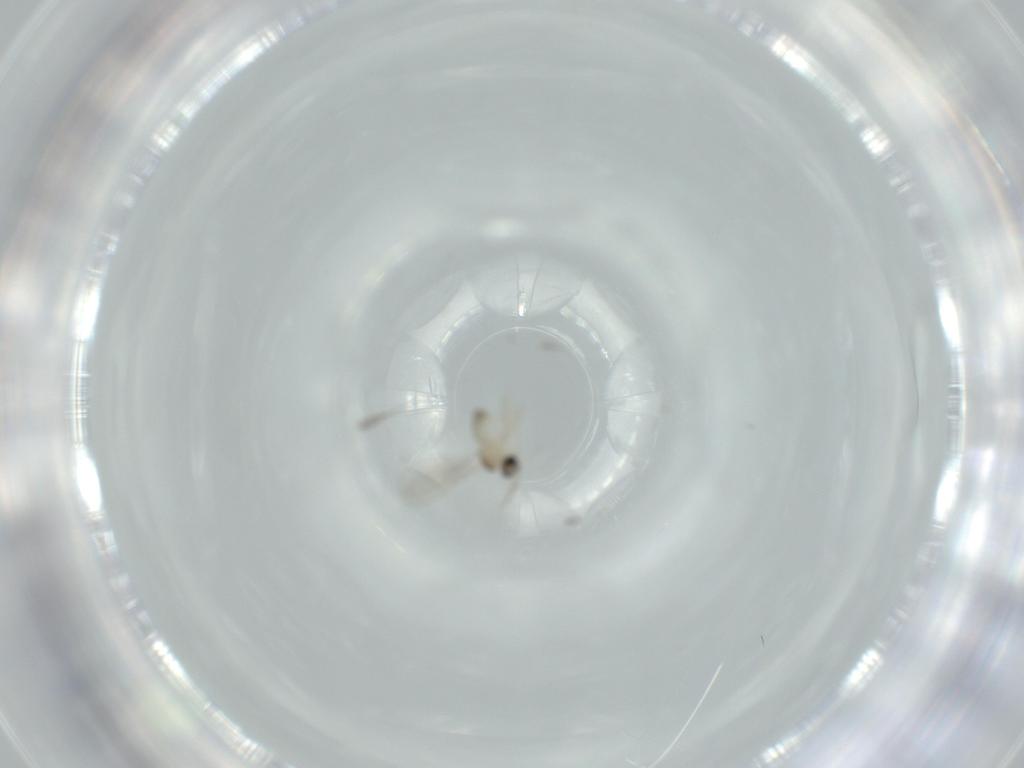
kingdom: Animalia
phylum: Arthropoda
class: Insecta
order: Diptera
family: Cecidomyiidae
